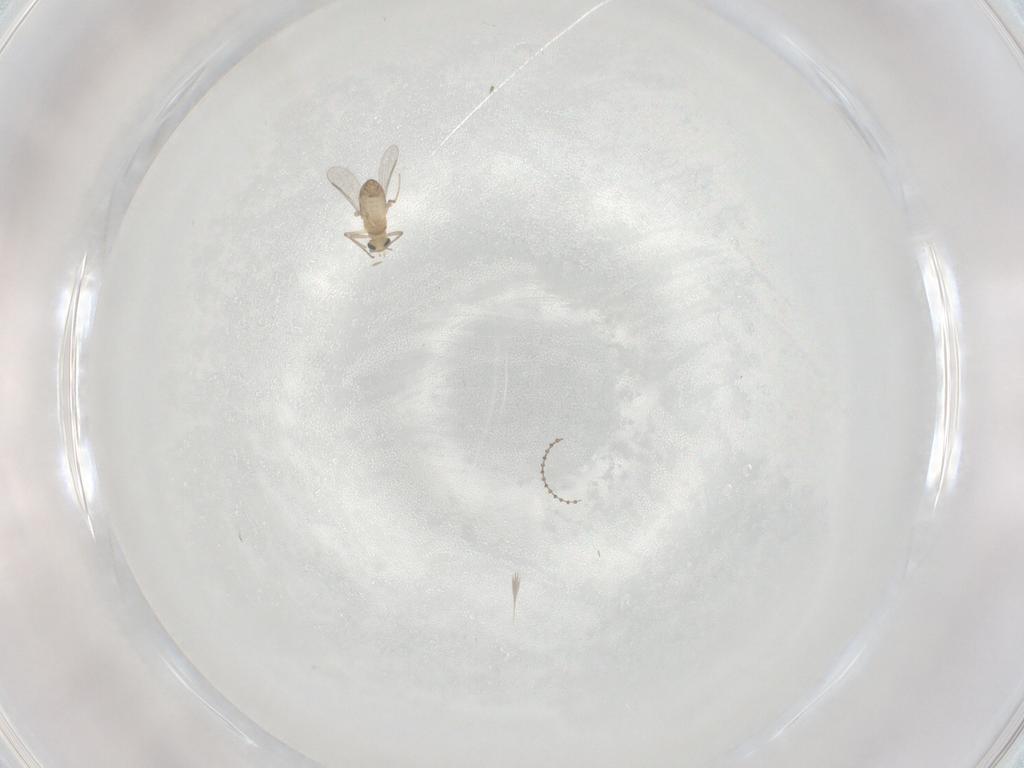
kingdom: Animalia
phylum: Arthropoda
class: Insecta
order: Diptera
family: Chironomidae
